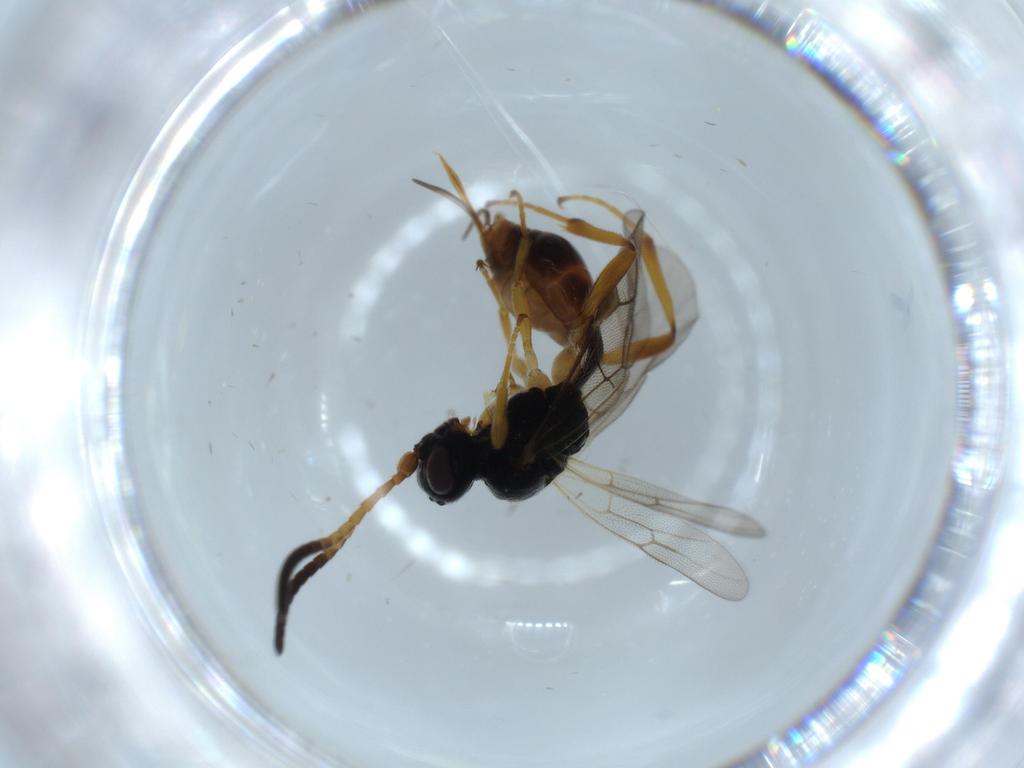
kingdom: Animalia
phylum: Arthropoda
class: Insecta
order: Hymenoptera
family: Ichneumonidae
